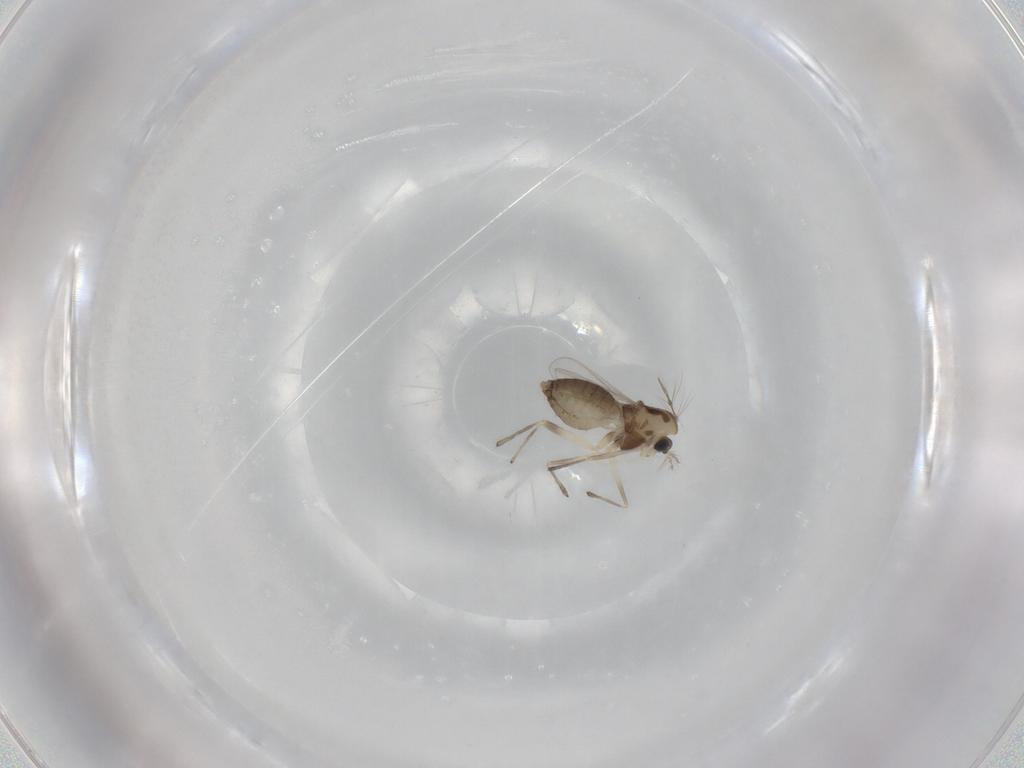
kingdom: Animalia
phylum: Arthropoda
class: Insecta
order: Diptera
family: Chironomidae
